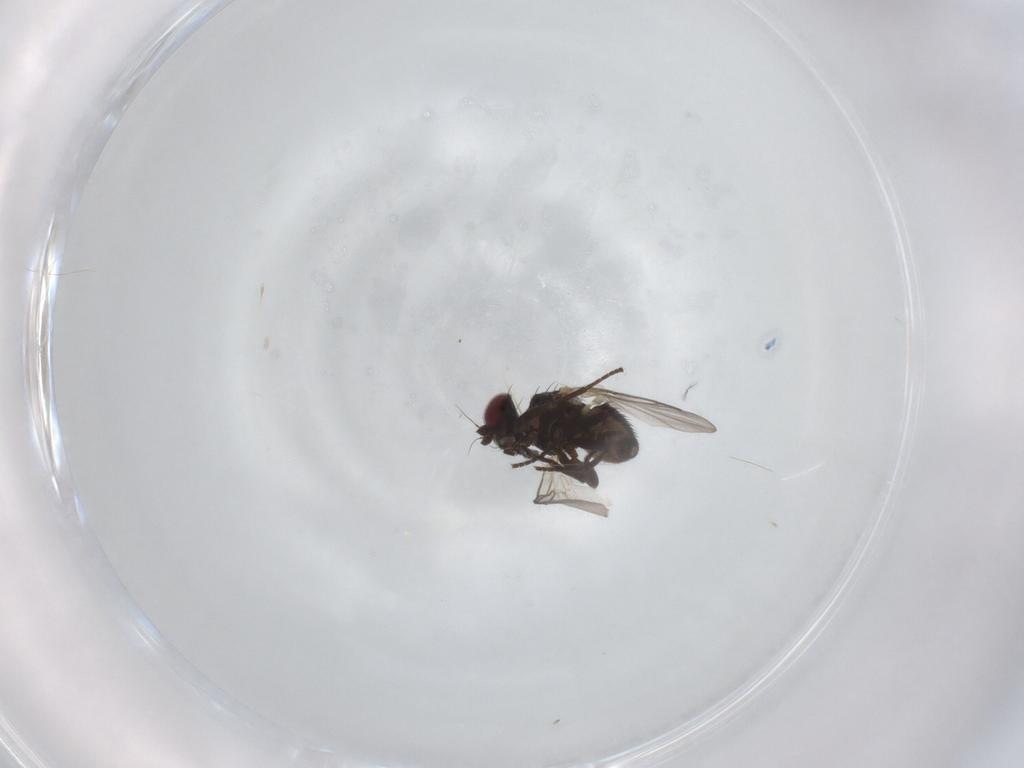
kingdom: Animalia
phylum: Arthropoda
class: Insecta
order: Diptera
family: Chironomidae
